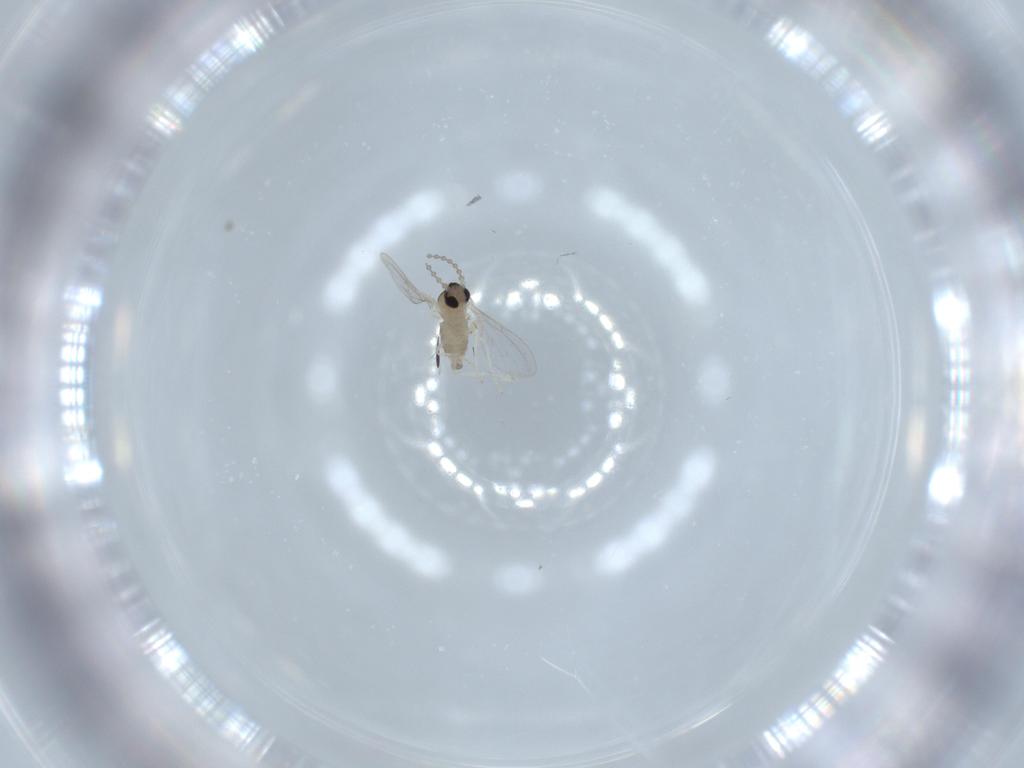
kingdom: Animalia
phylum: Arthropoda
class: Insecta
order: Diptera
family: Cecidomyiidae
